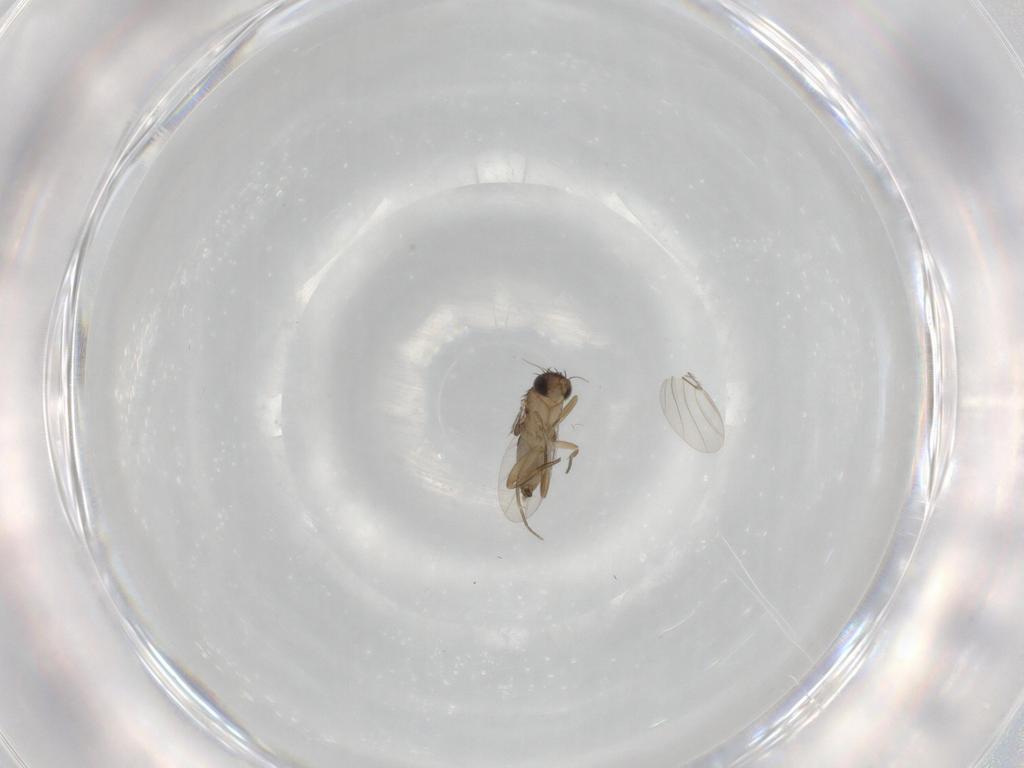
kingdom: Animalia
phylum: Arthropoda
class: Insecta
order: Diptera
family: Phoridae
